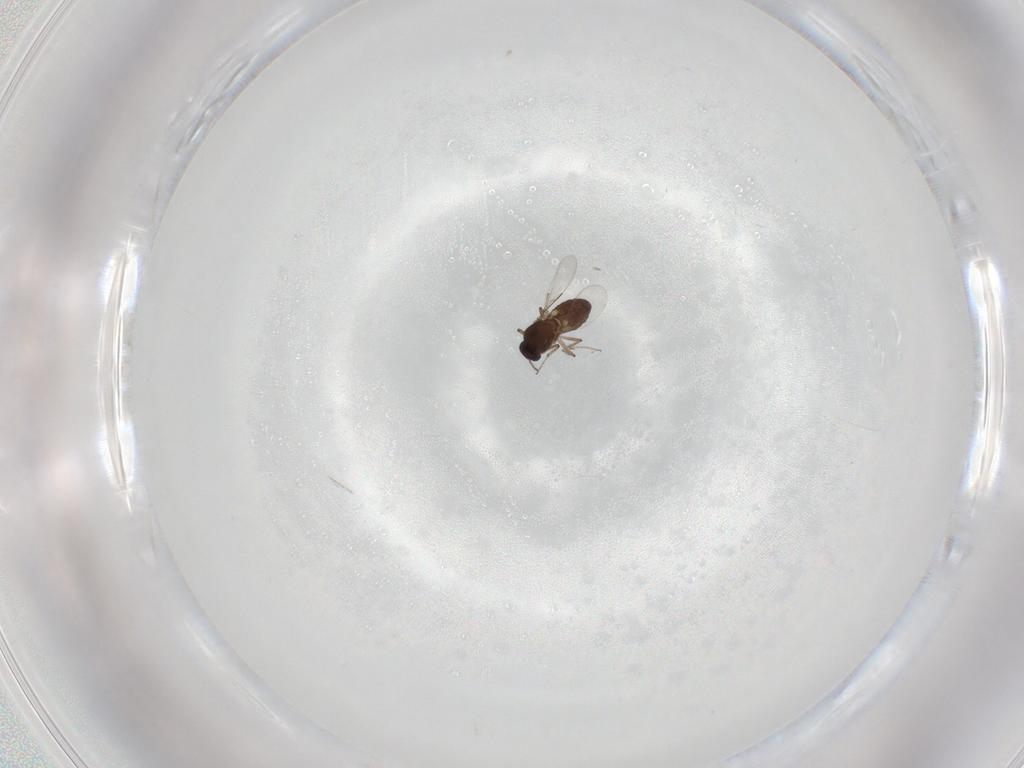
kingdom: Animalia
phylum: Arthropoda
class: Insecta
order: Diptera
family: Ceratopogonidae
